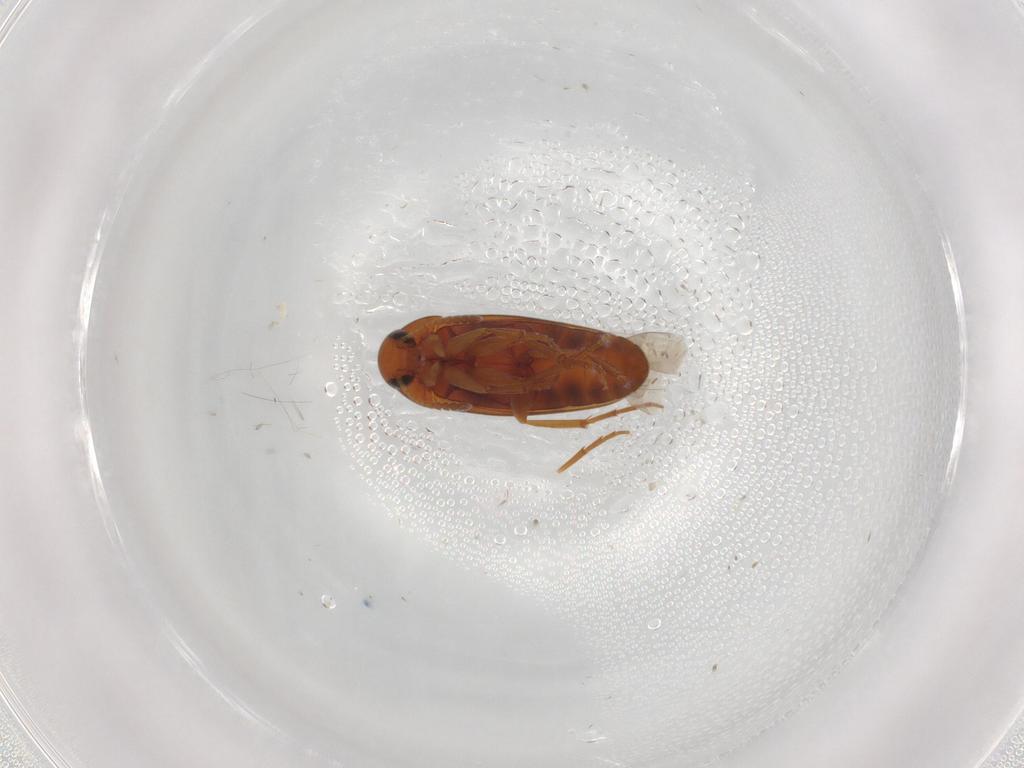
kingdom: Animalia
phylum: Arthropoda
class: Insecta
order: Coleoptera
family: Scraptiidae
